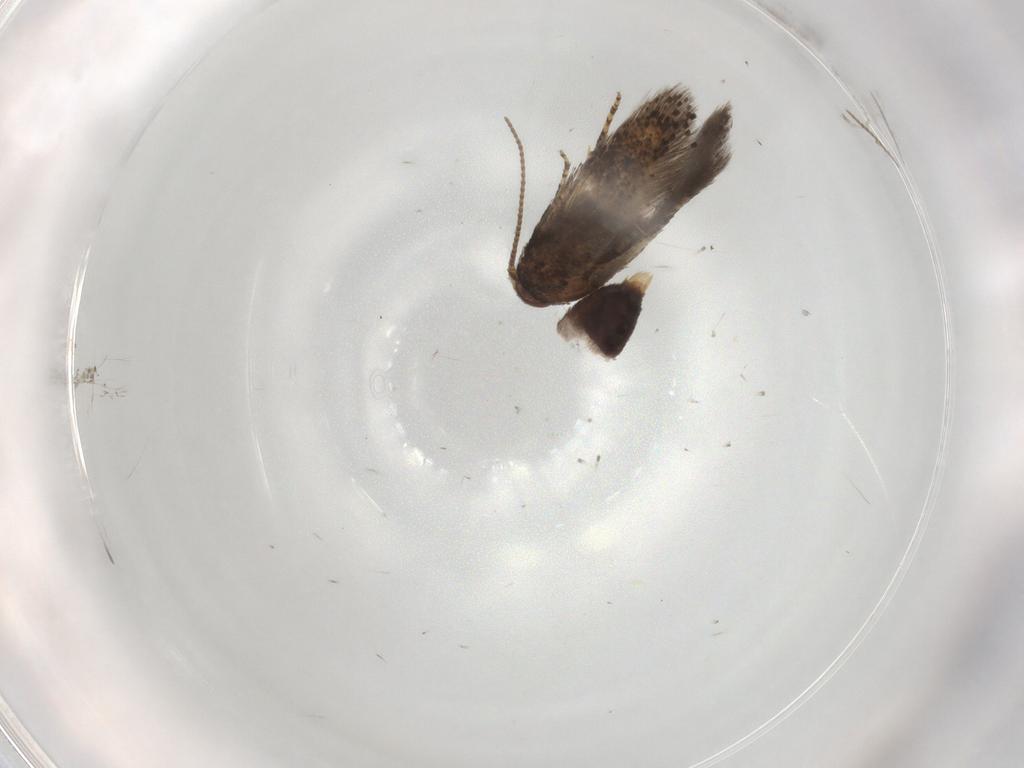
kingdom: Animalia
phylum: Arthropoda
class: Insecta
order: Lepidoptera
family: Elachistidae
